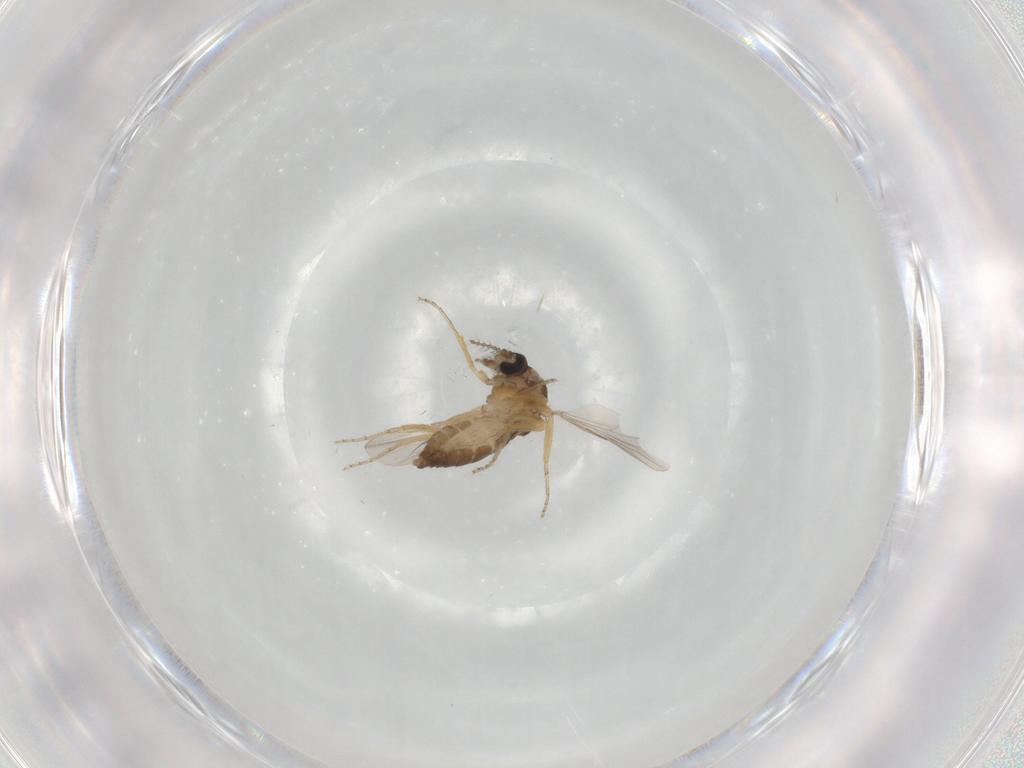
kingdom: Animalia
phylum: Arthropoda
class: Insecta
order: Diptera
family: Ceratopogonidae
